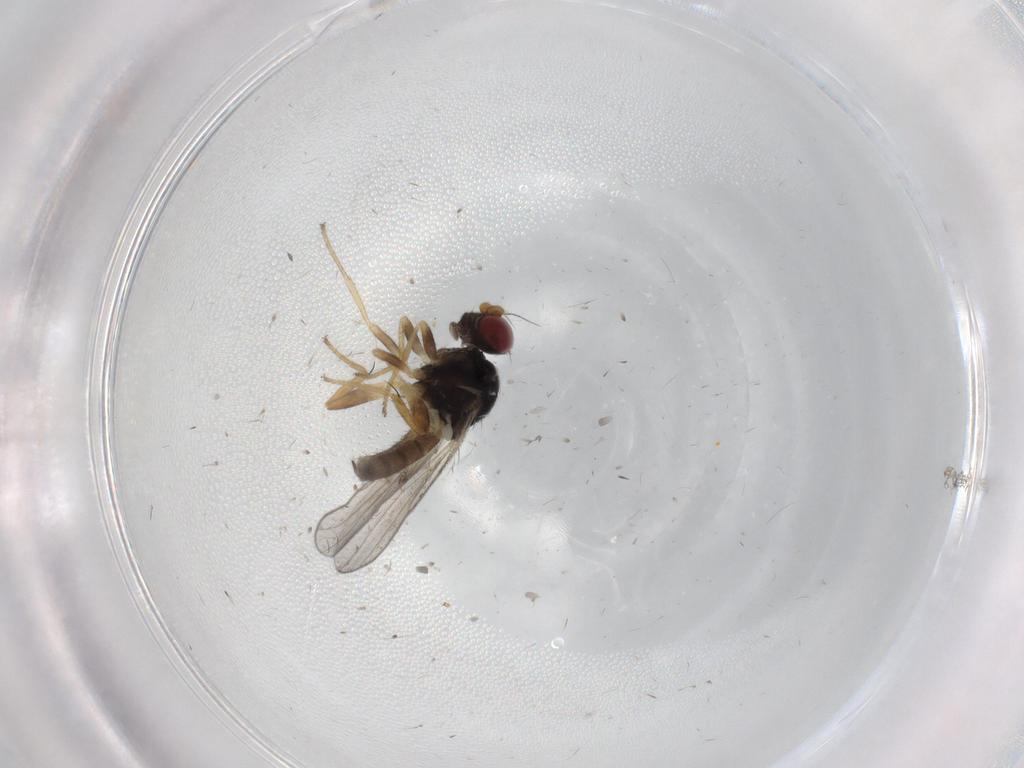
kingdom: Animalia
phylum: Arthropoda
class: Insecta
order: Diptera
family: Chloropidae
